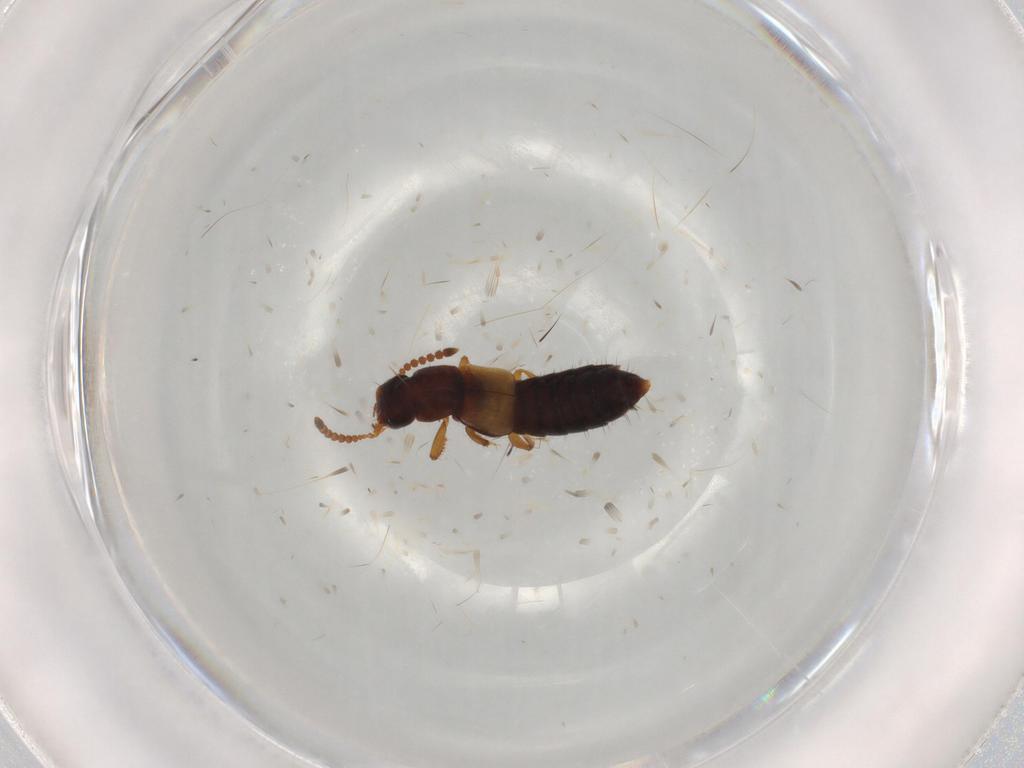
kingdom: Animalia
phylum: Arthropoda
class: Insecta
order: Coleoptera
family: Staphylinidae
